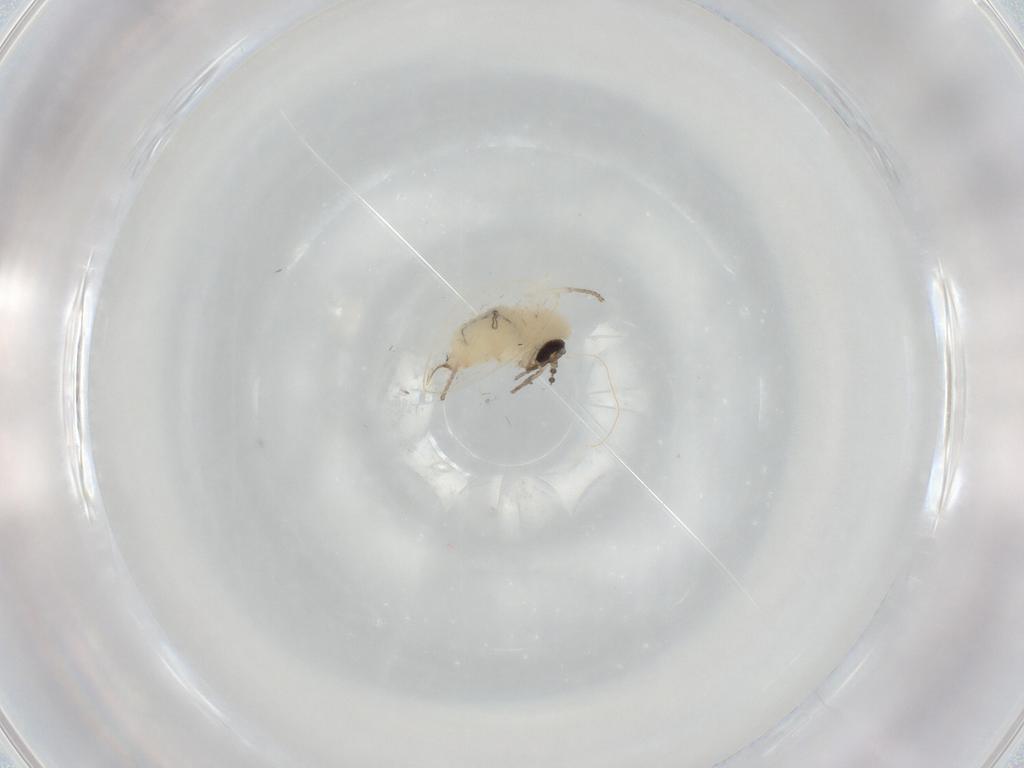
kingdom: Animalia
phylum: Arthropoda
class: Insecta
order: Diptera
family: Psychodidae
